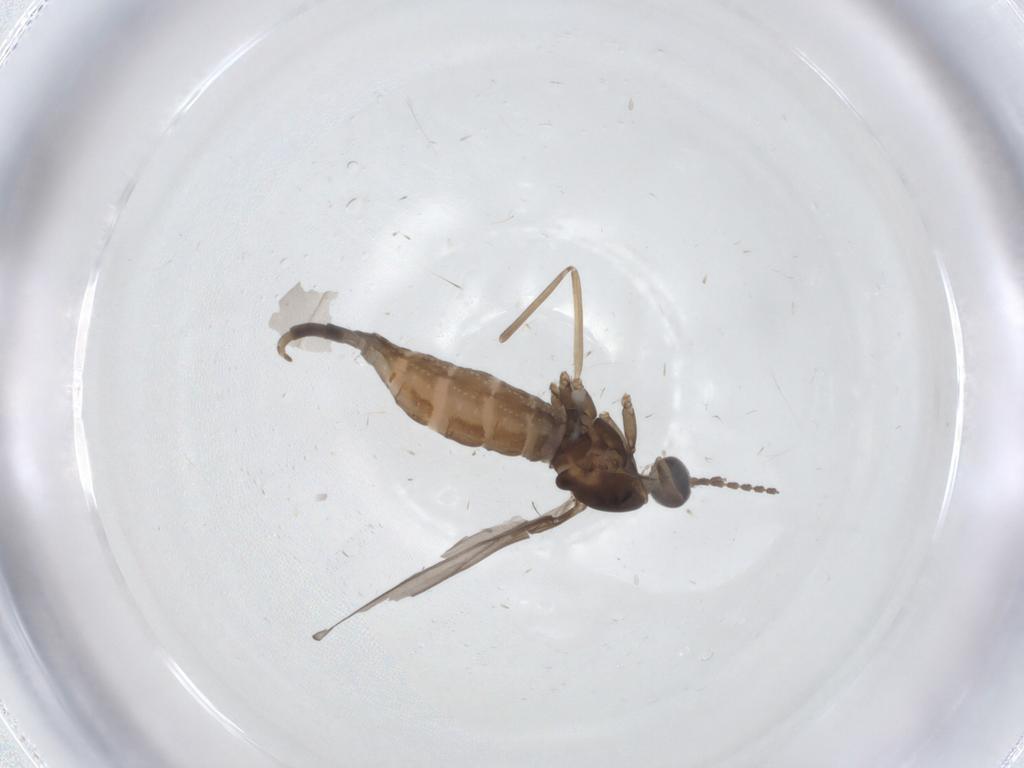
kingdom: Animalia
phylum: Arthropoda
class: Insecta
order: Diptera
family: Cecidomyiidae
